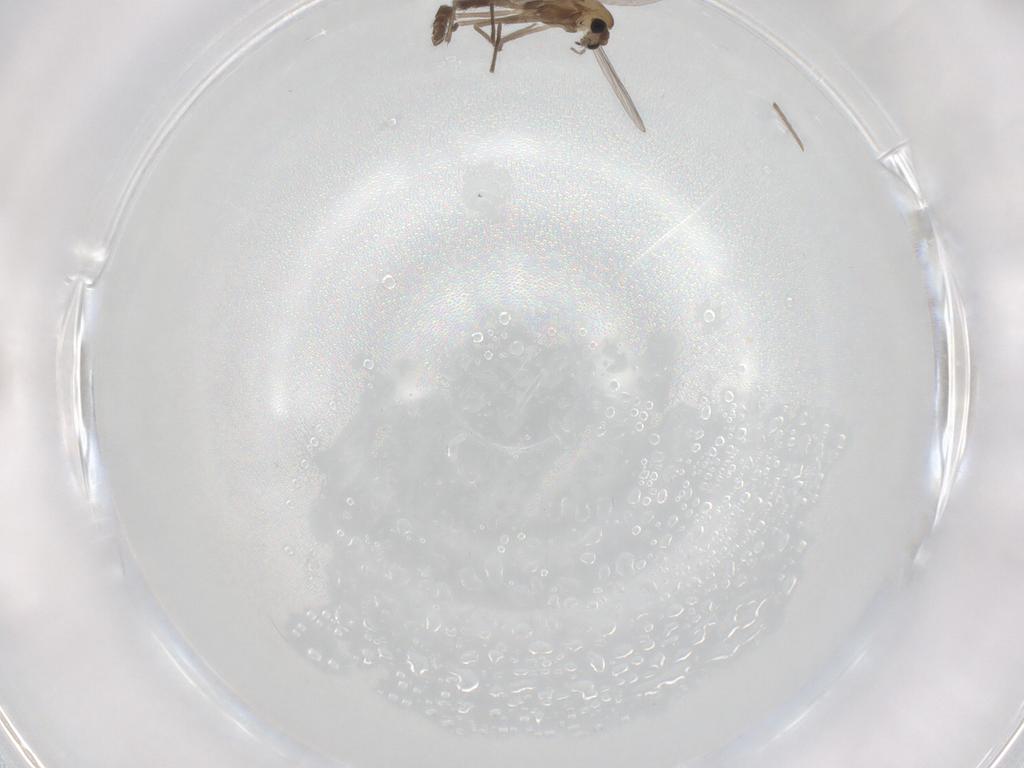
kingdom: Animalia
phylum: Arthropoda
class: Insecta
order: Diptera
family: Chironomidae
